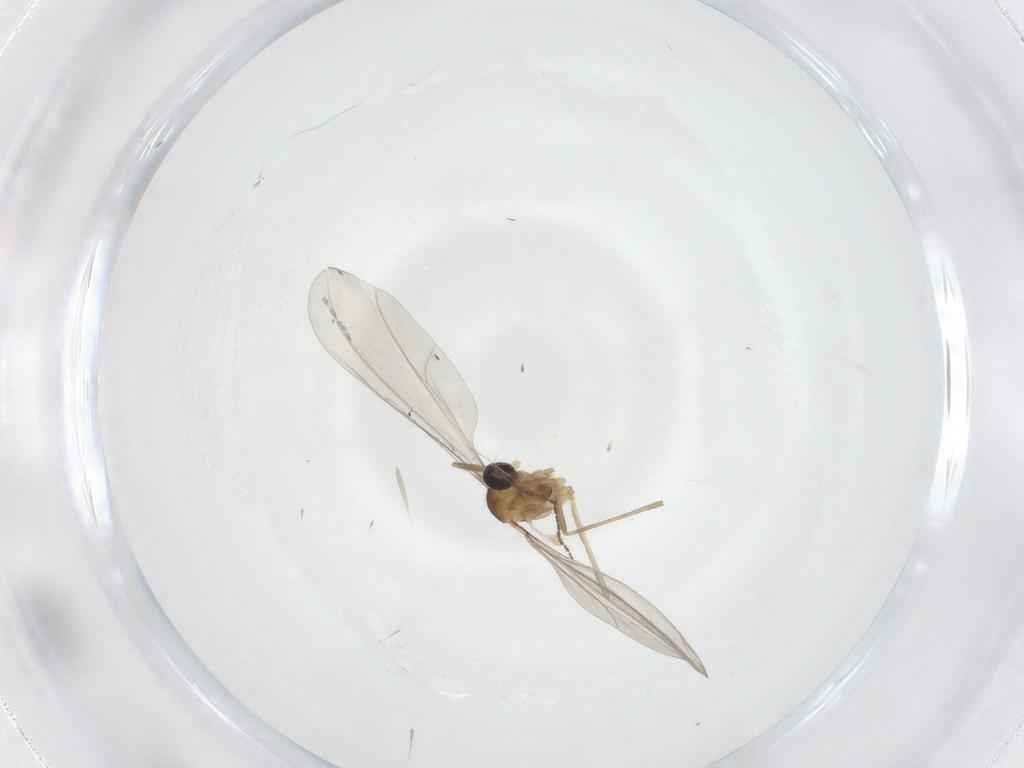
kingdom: Animalia
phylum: Arthropoda
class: Insecta
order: Diptera
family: Cecidomyiidae
